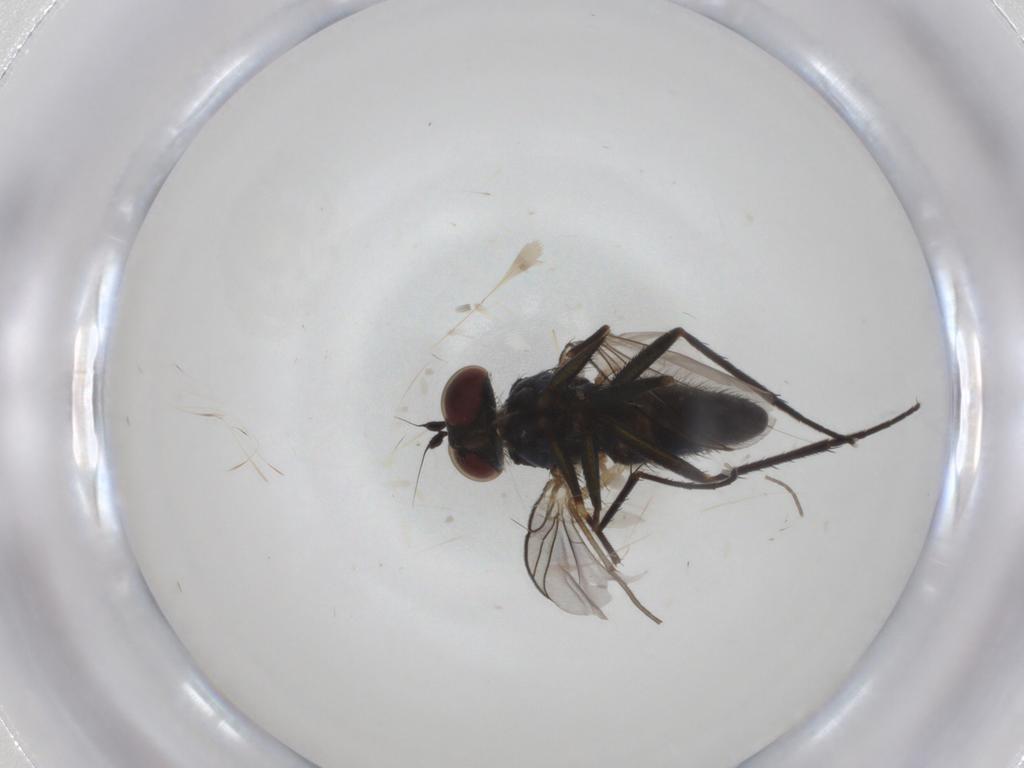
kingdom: Animalia
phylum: Arthropoda
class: Insecta
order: Diptera
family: Dolichopodidae
